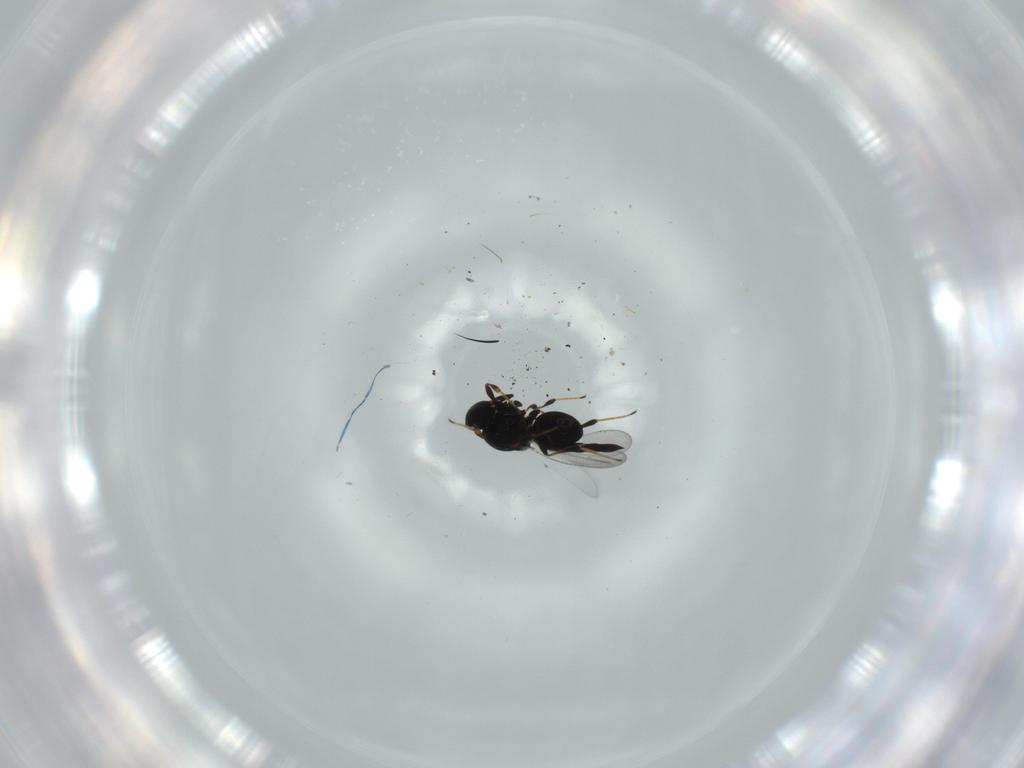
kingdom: Animalia
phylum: Arthropoda
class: Insecta
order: Hymenoptera
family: Platygastridae
